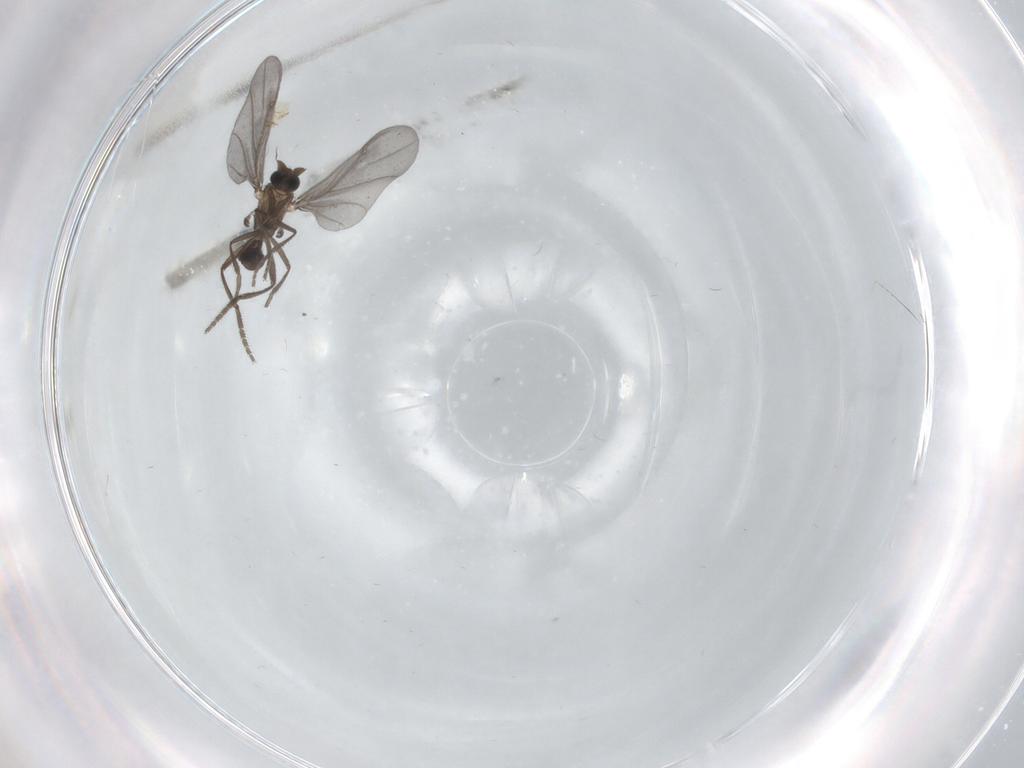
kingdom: Animalia
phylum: Arthropoda
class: Insecta
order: Diptera
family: Phoridae
